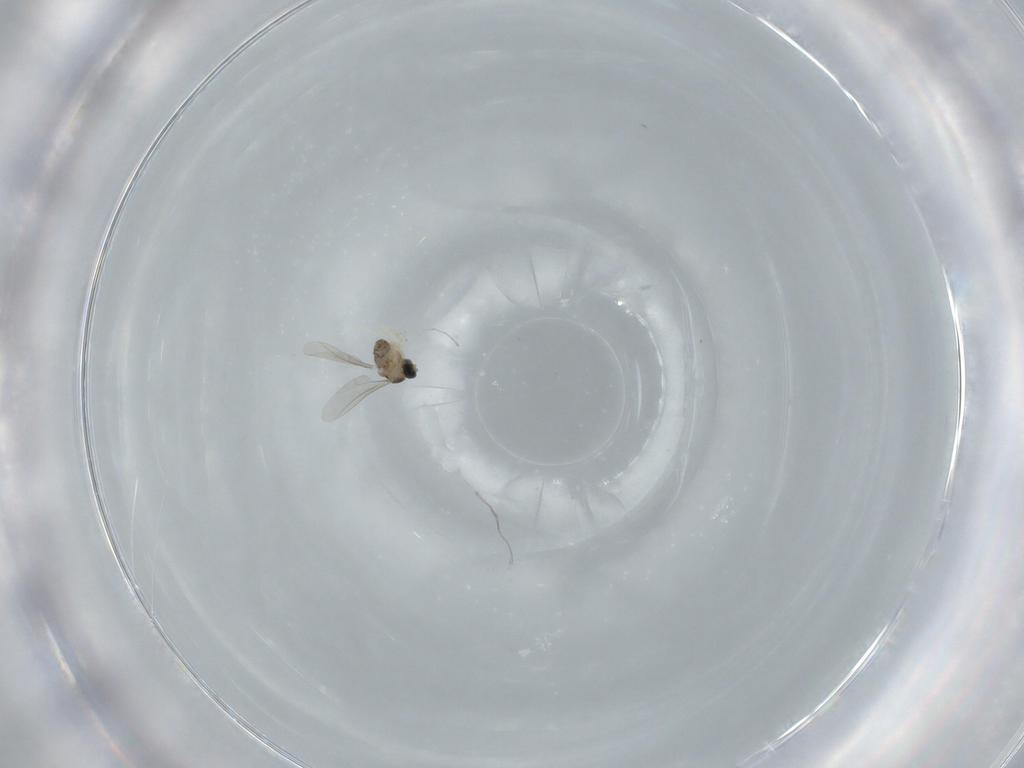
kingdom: Animalia
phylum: Arthropoda
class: Insecta
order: Diptera
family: Cecidomyiidae
